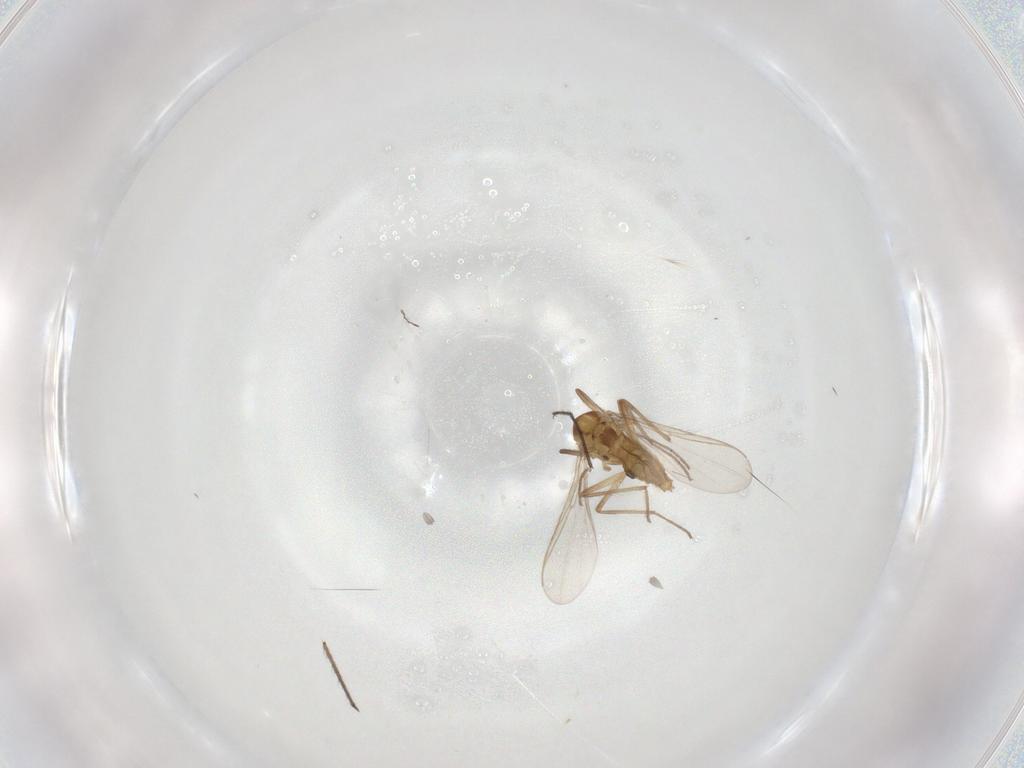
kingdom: Animalia
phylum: Arthropoda
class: Insecta
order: Diptera
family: Chironomidae
